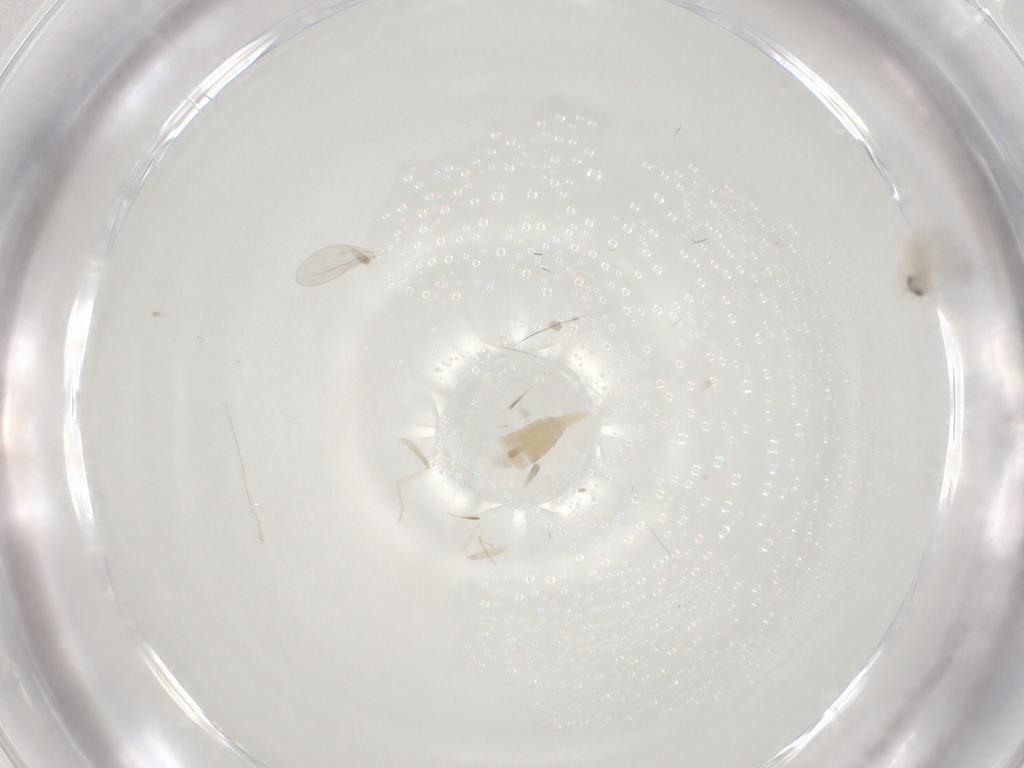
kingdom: Animalia
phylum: Arthropoda
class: Insecta
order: Diptera
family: Cecidomyiidae
